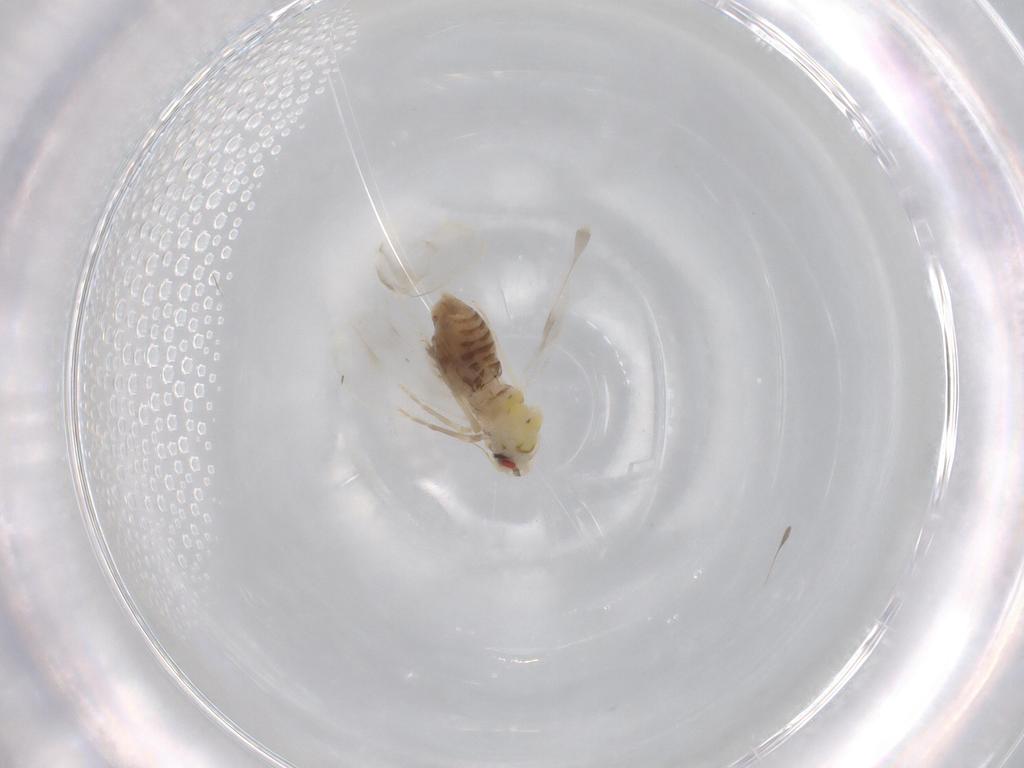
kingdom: Animalia
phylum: Arthropoda
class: Insecta
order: Hemiptera
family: Aleyrodidae
